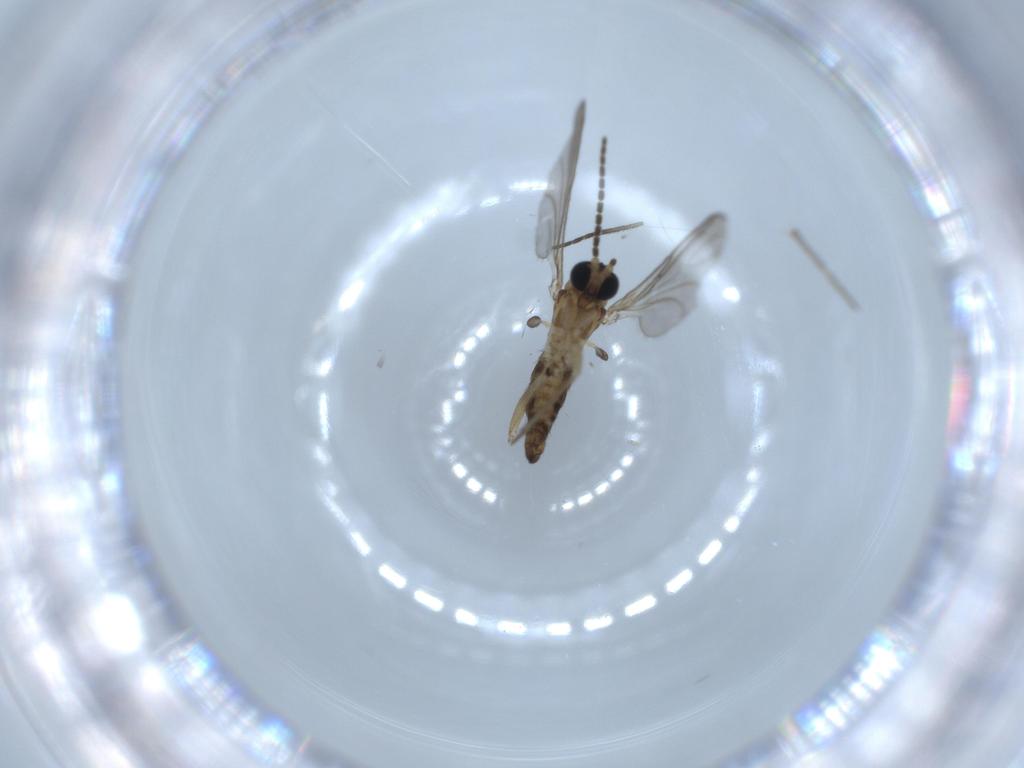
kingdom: Animalia
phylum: Arthropoda
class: Insecta
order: Diptera
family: Sciaridae
